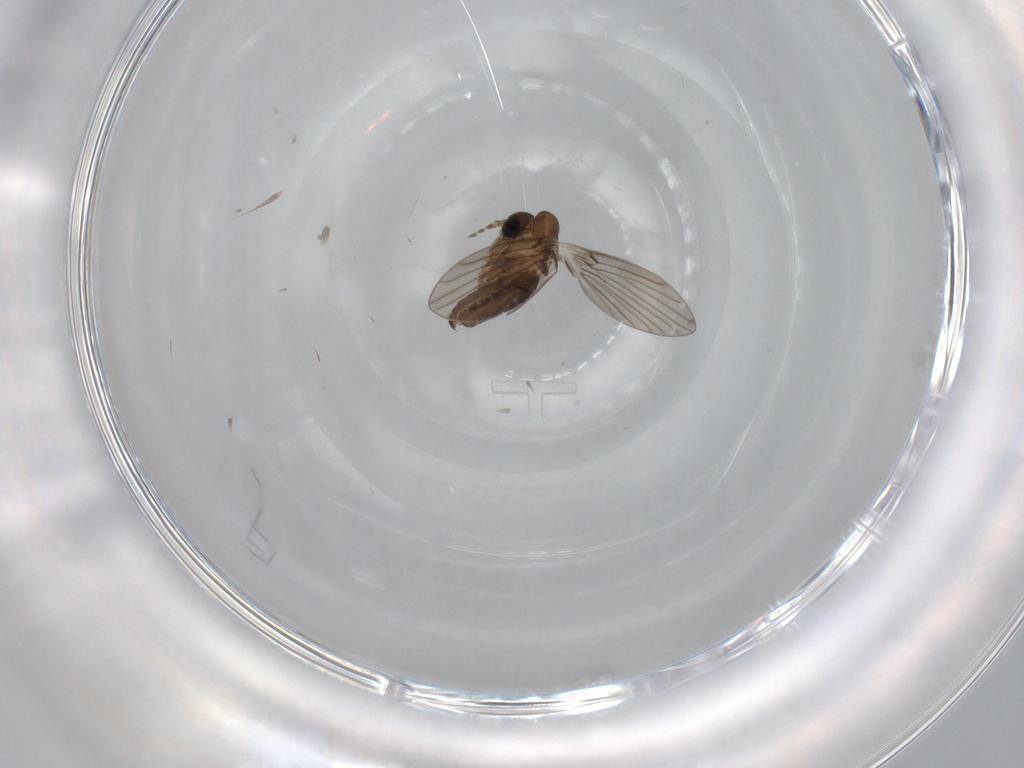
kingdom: Animalia
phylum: Arthropoda
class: Insecta
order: Diptera
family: Psychodidae
